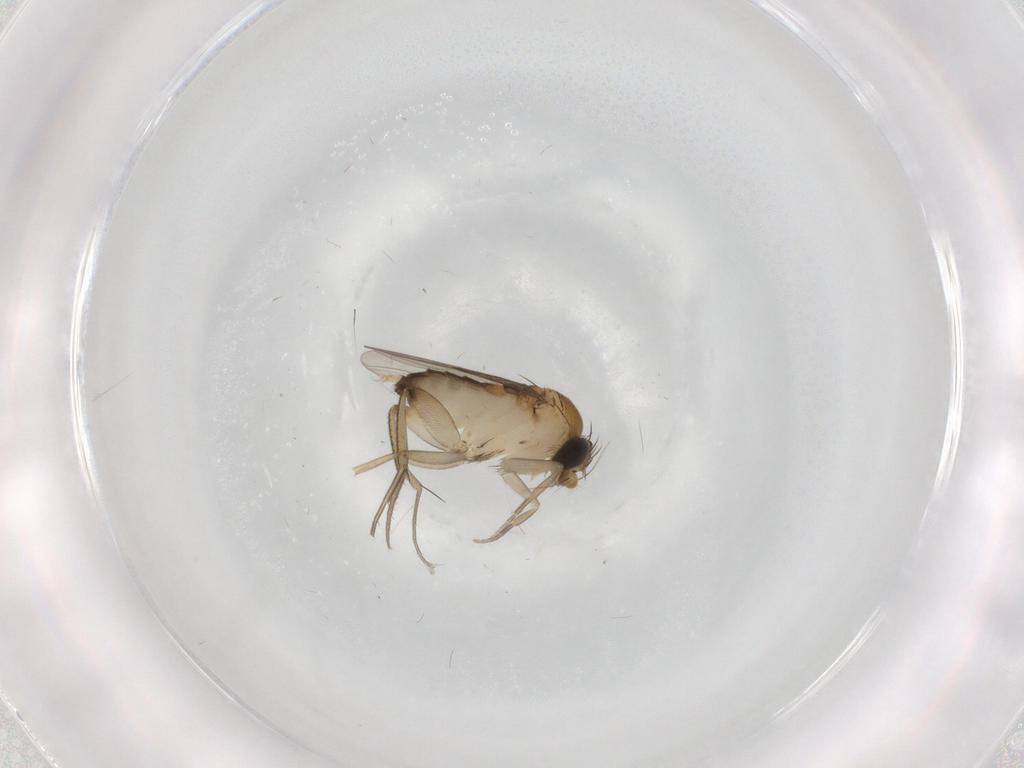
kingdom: Animalia
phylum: Arthropoda
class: Insecta
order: Diptera
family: Phoridae
